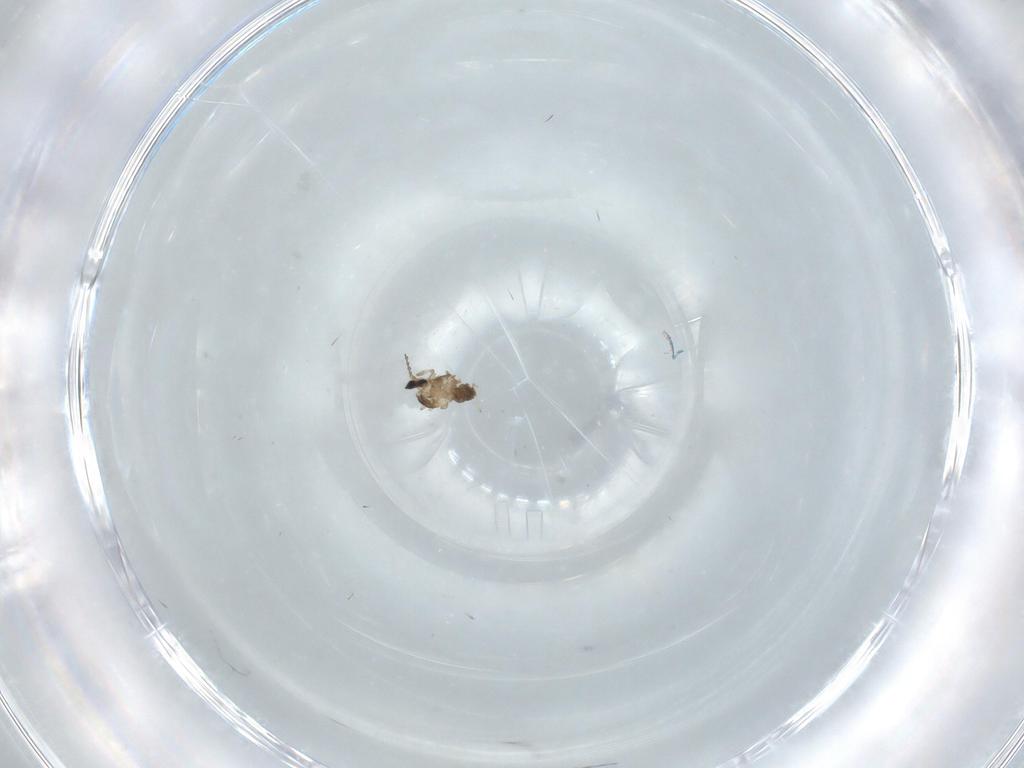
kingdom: Animalia
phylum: Arthropoda
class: Insecta
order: Diptera
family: Cecidomyiidae
